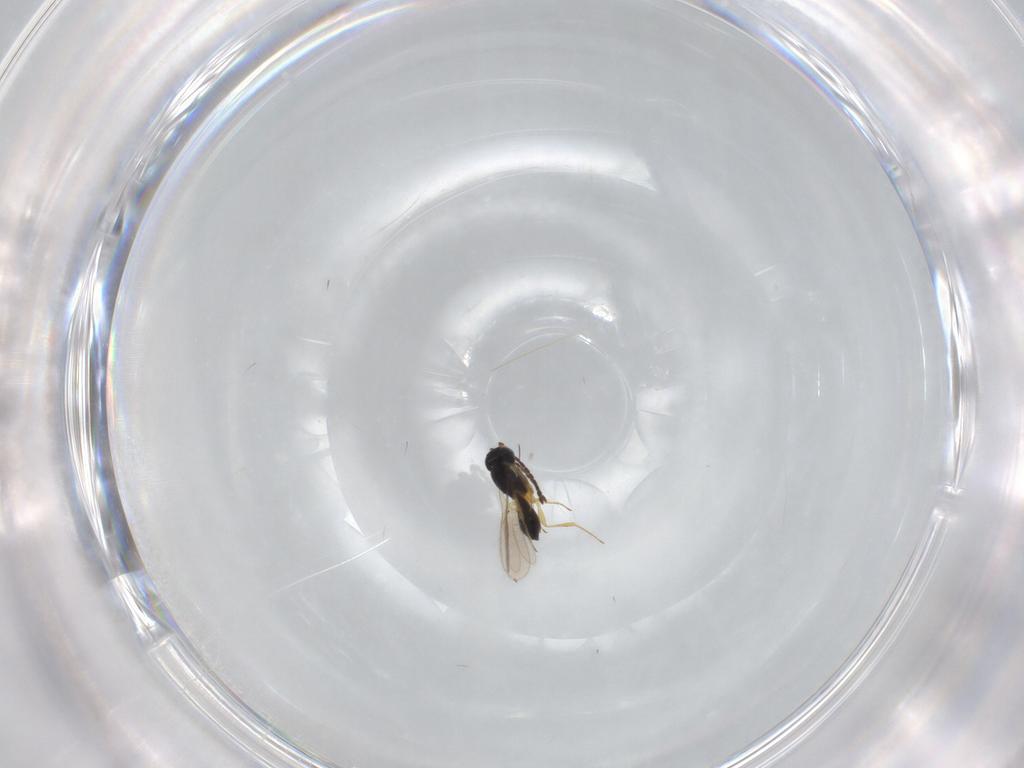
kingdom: Animalia
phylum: Arthropoda
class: Insecta
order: Hymenoptera
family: Scelionidae
